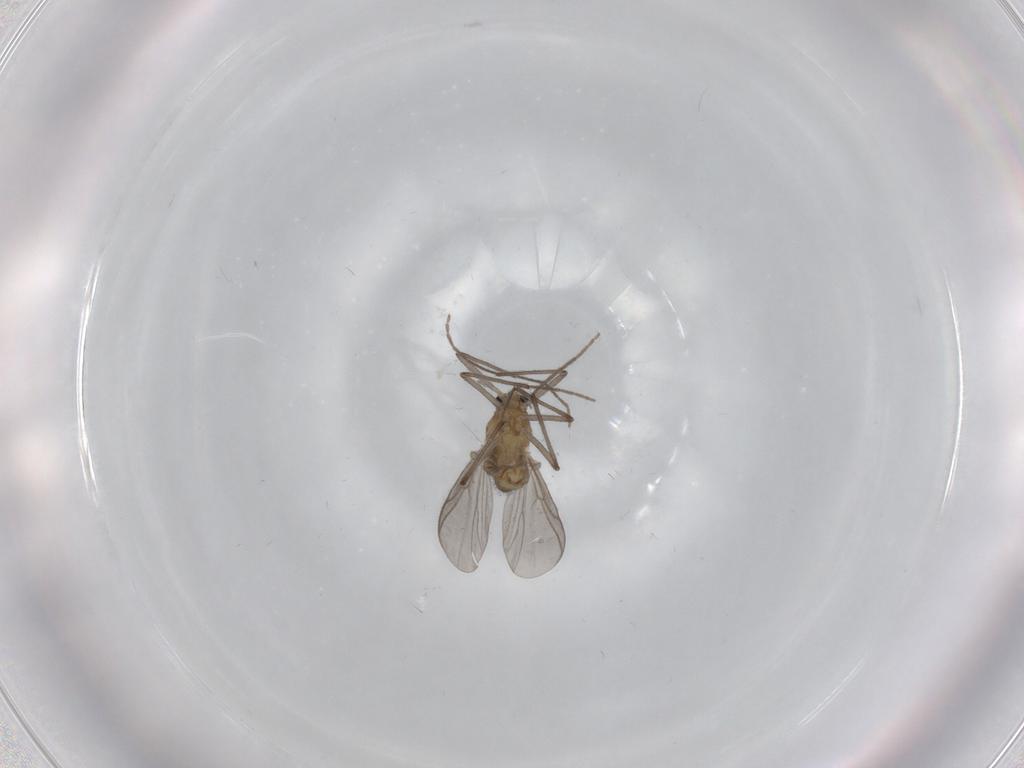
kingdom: Animalia
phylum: Arthropoda
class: Insecta
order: Diptera
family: Chironomidae
